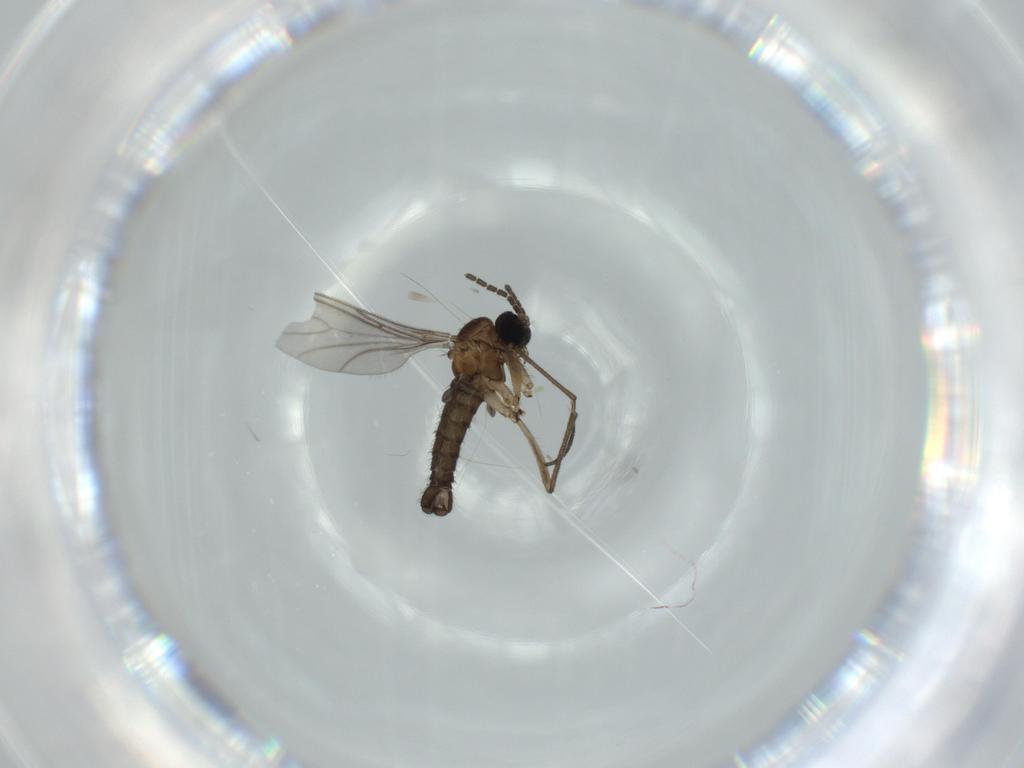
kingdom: Animalia
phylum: Arthropoda
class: Insecta
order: Diptera
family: Sciaridae
